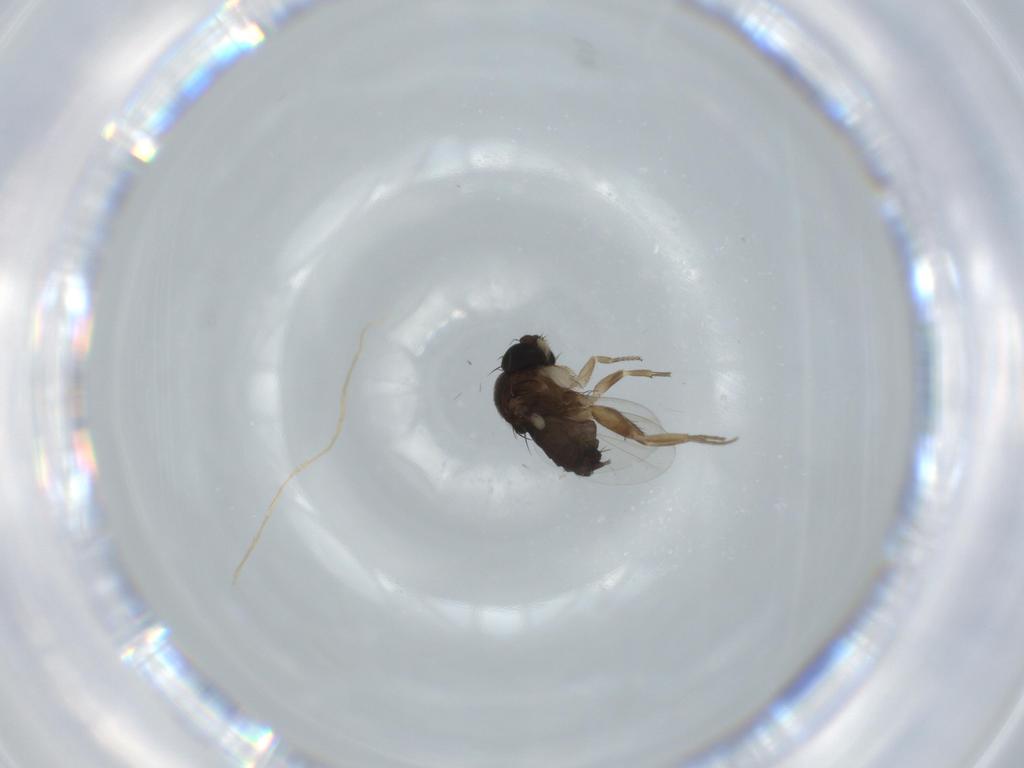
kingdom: Animalia
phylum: Arthropoda
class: Insecta
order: Diptera
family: Phoridae
